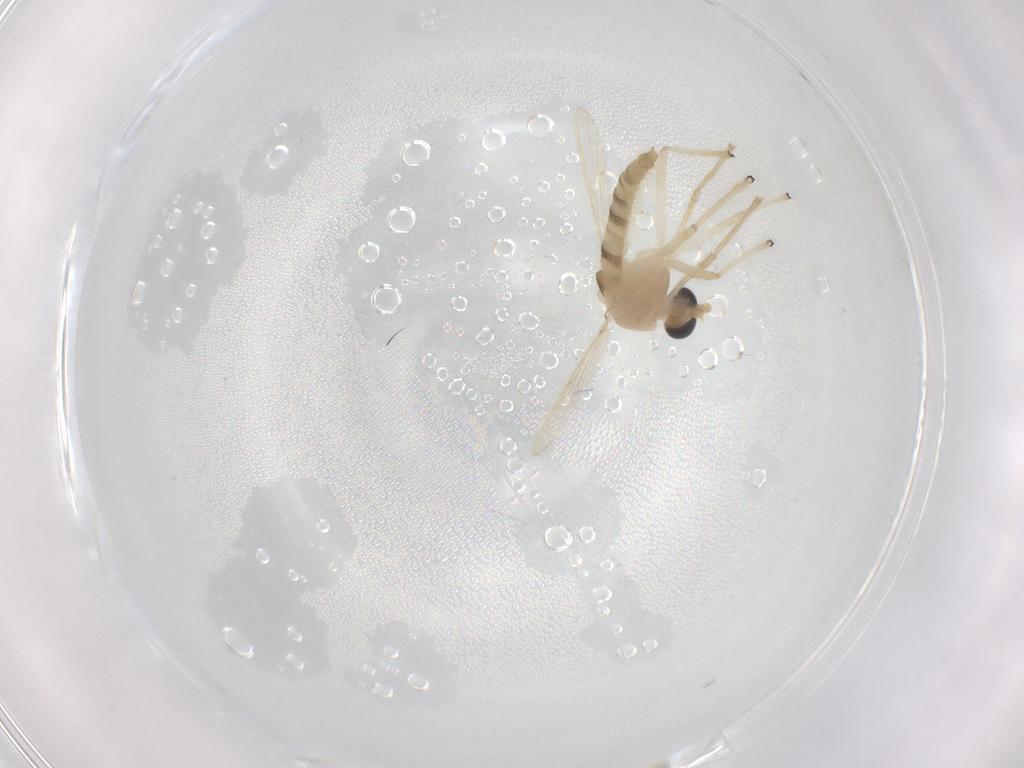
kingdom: Animalia
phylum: Arthropoda
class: Insecta
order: Diptera
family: Chironomidae
